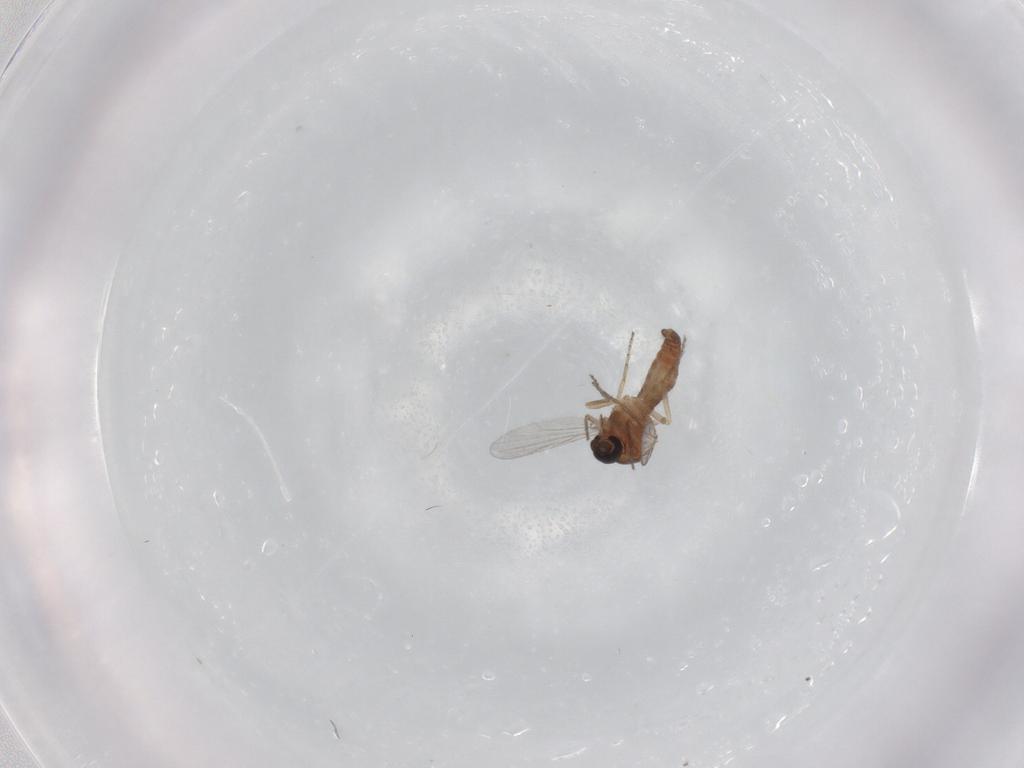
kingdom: Animalia
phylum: Arthropoda
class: Insecta
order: Diptera
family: Ceratopogonidae
